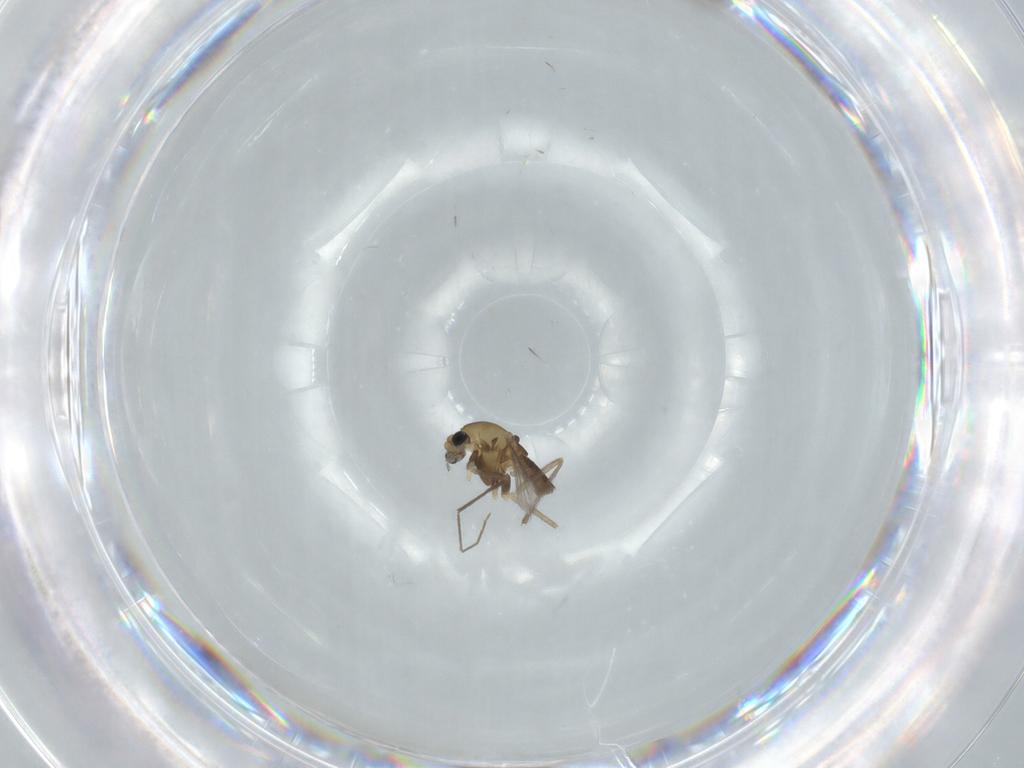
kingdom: Animalia
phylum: Arthropoda
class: Insecta
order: Diptera
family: Chironomidae
